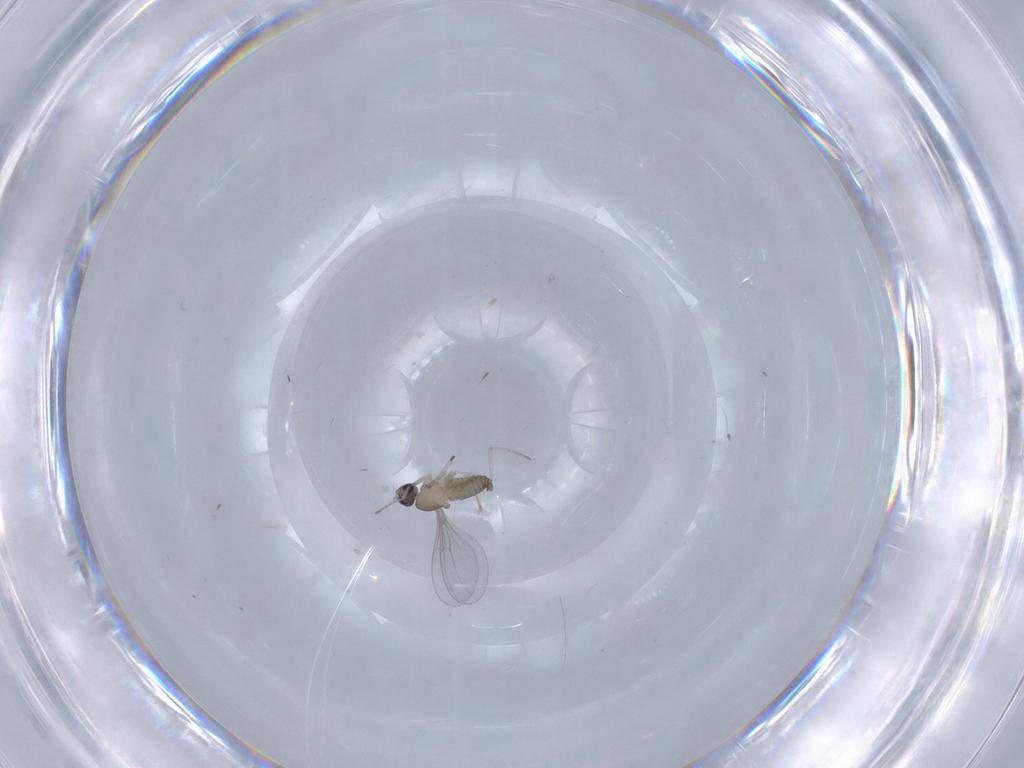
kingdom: Animalia
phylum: Arthropoda
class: Insecta
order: Diptera
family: Cecidomyiidae
